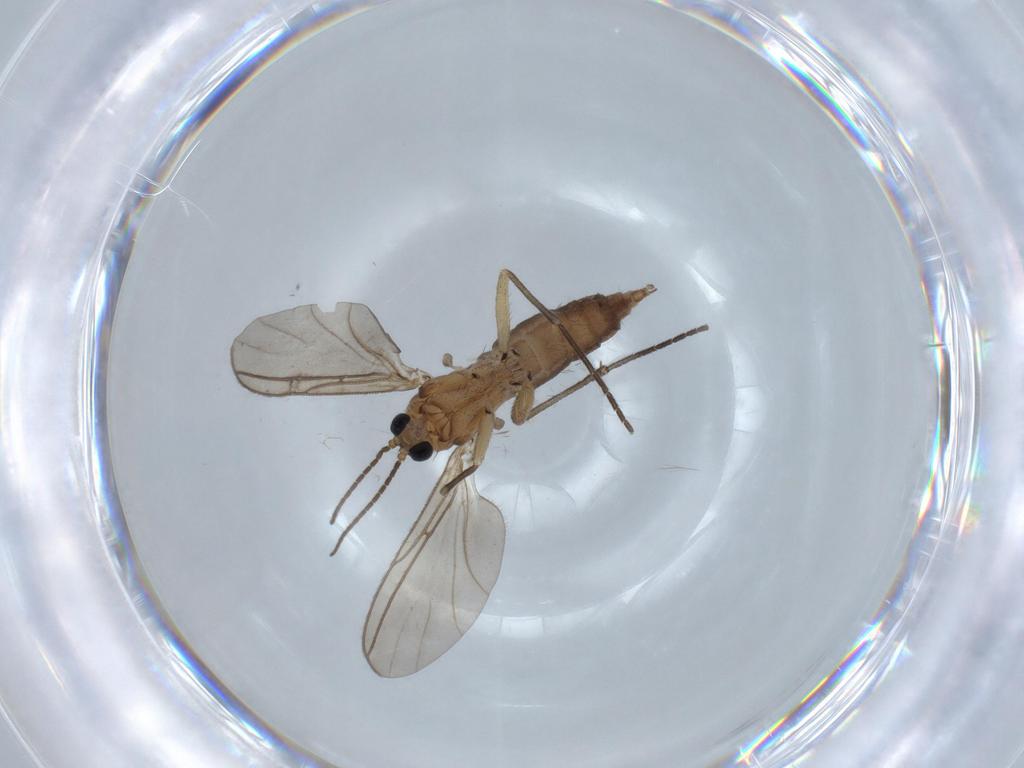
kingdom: Animalia
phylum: Arthropoda
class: Insecta
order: Diptera
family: Sciaridae
